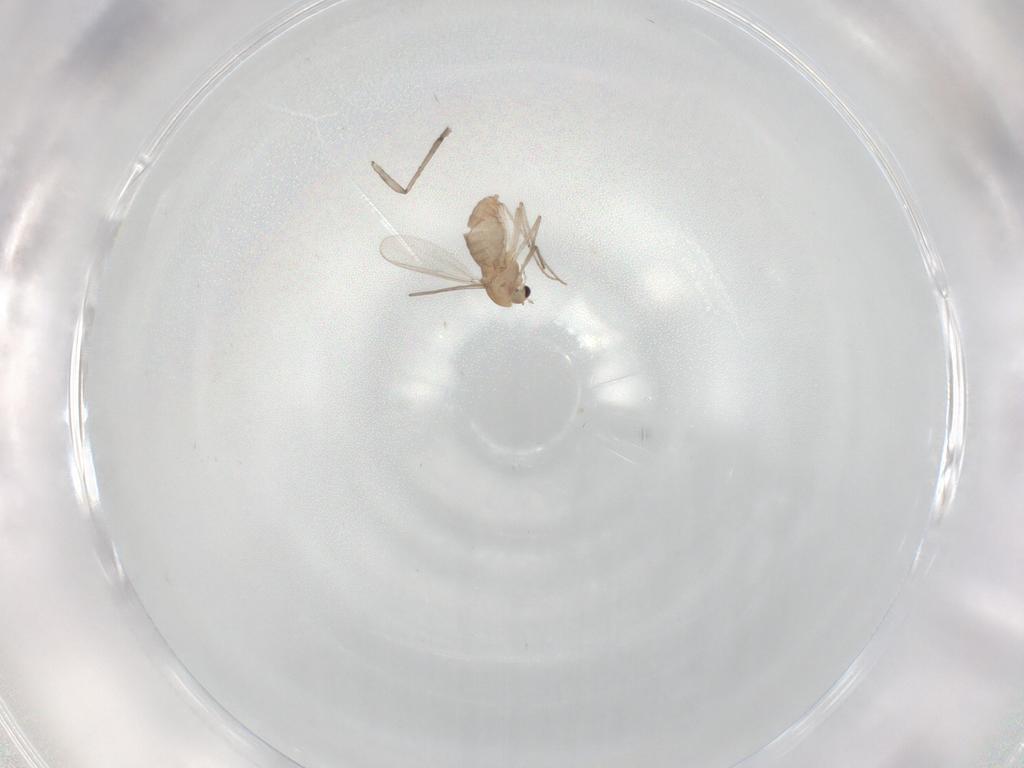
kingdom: Animalia
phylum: Arthropoda
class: Insecta
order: Diptera
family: Chironomidae
